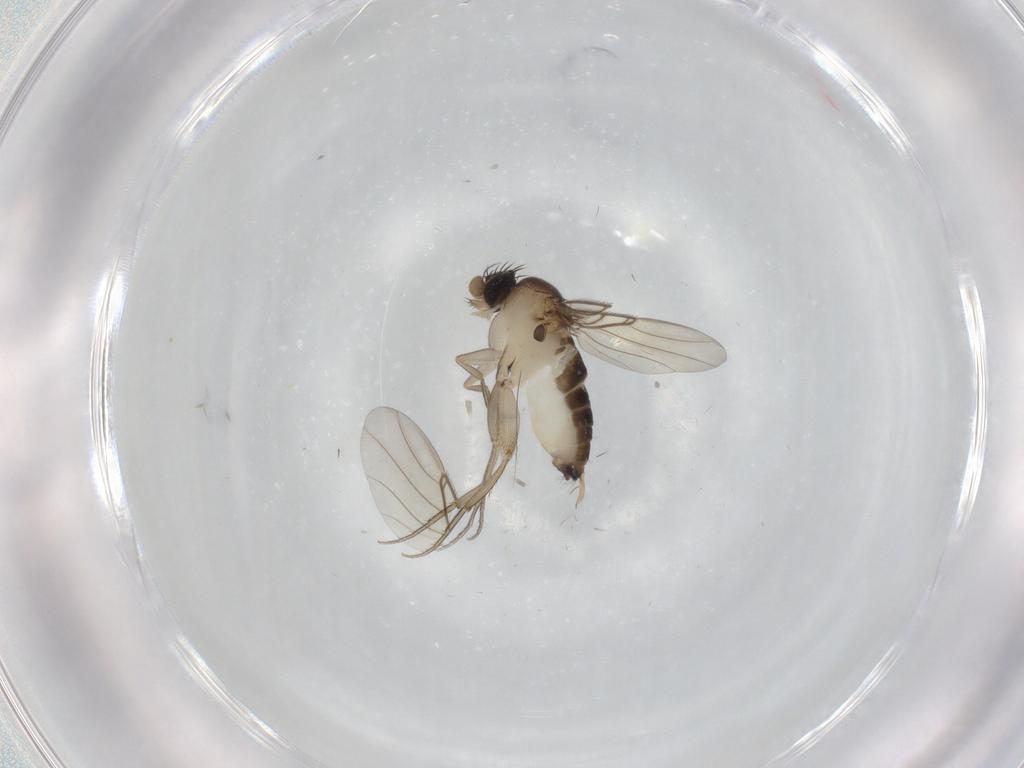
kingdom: Animalia
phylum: Arthropoda
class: Insecta
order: Diptera
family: Phoridae
